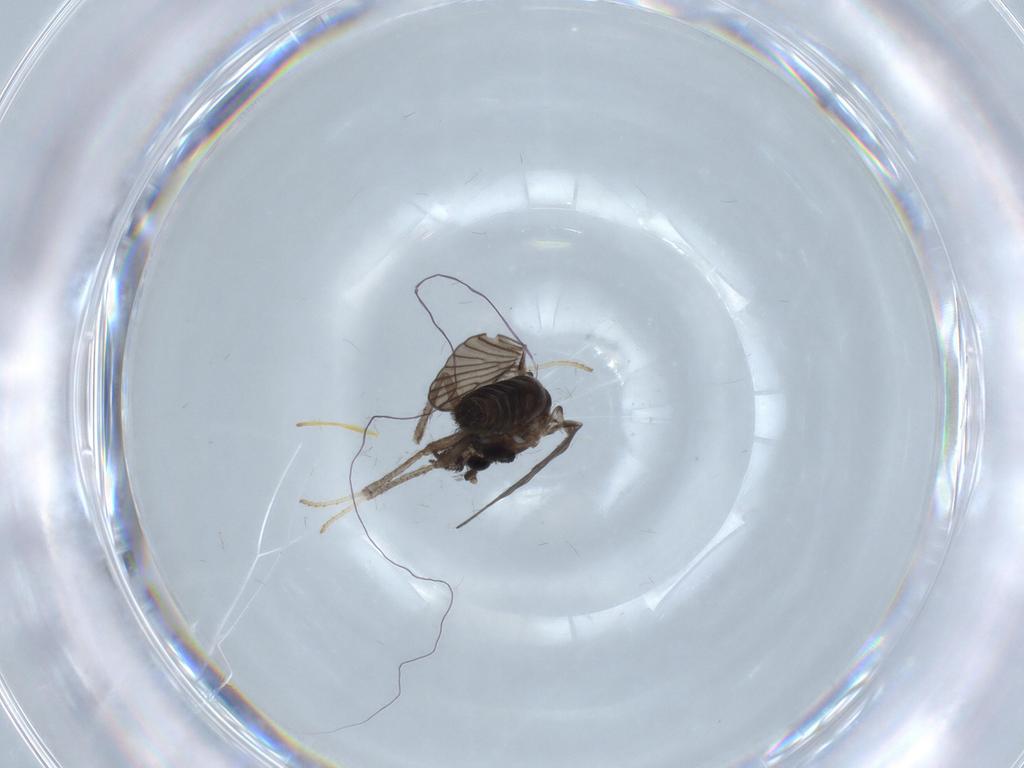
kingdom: Animalia
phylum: Arthropoda
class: Insecta
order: Diptera
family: Psychodidae
